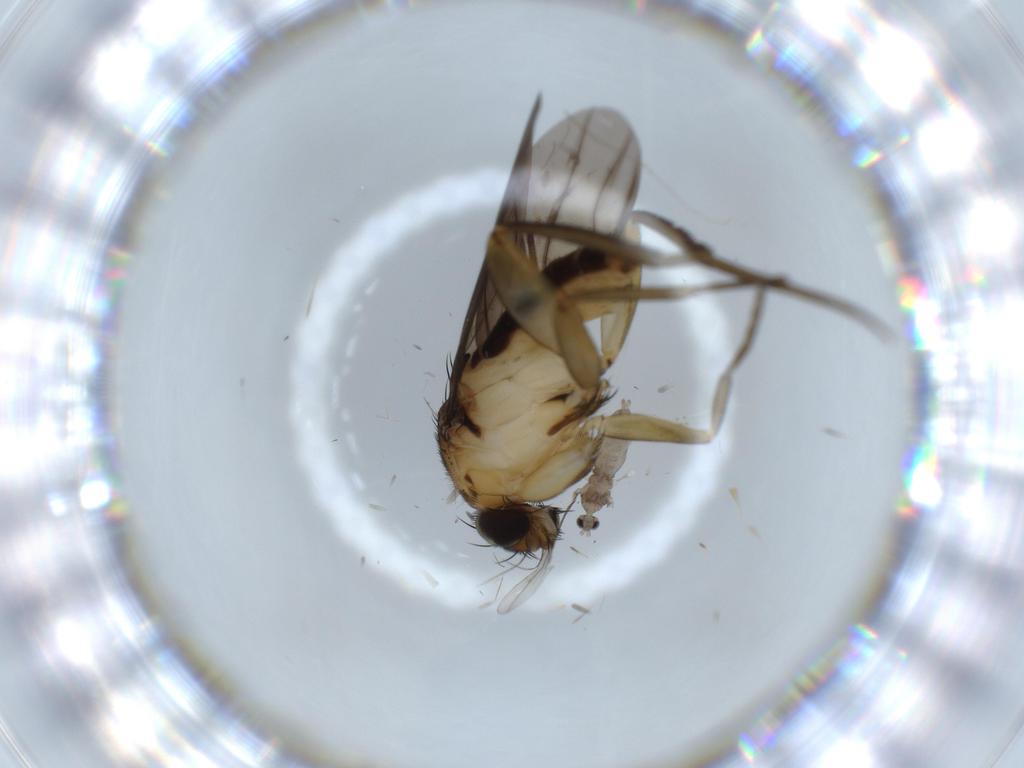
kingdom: Animalia
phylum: Arthropoda
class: Insecta
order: Diptera
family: Phoridae
